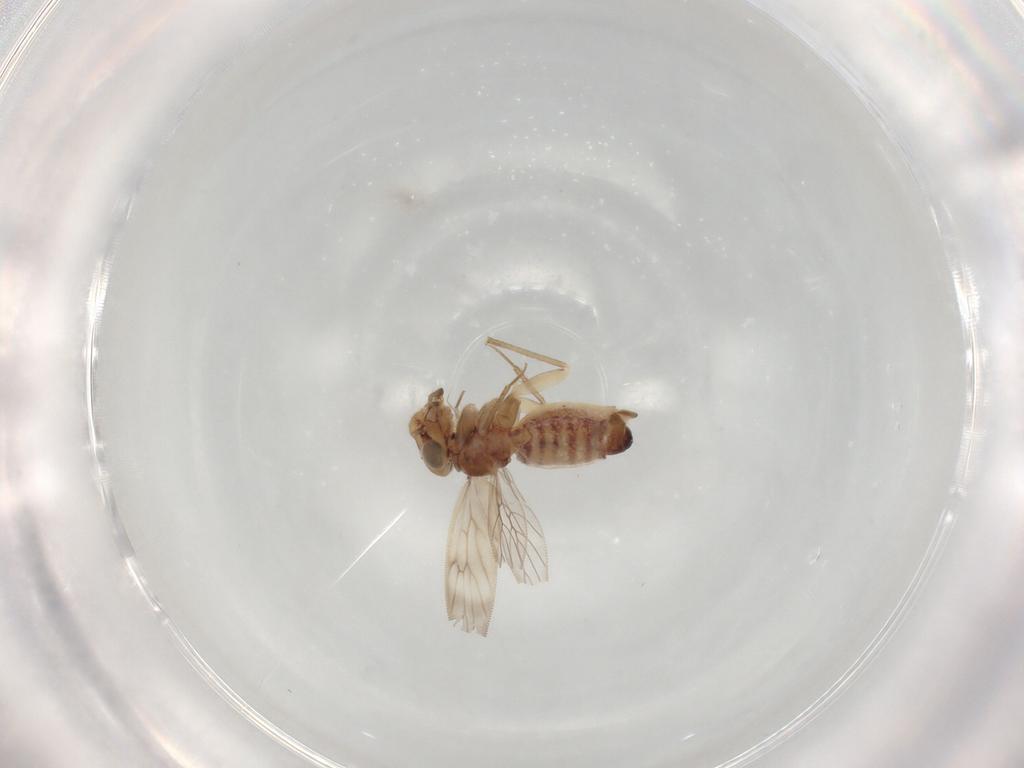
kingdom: Animalia
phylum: Arthropoda
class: Insecta
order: Psocodea
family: Lepidopsocidae
